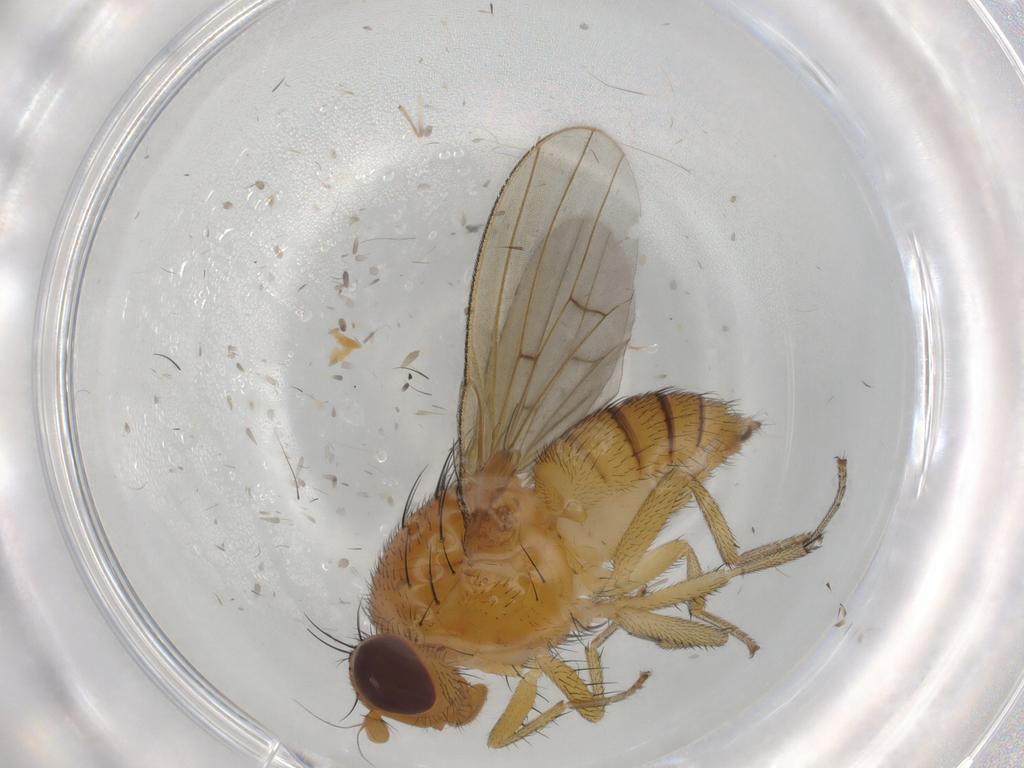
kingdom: Animalia
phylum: Arthropoda
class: Insecta
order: Diptera
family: Chironomidae
